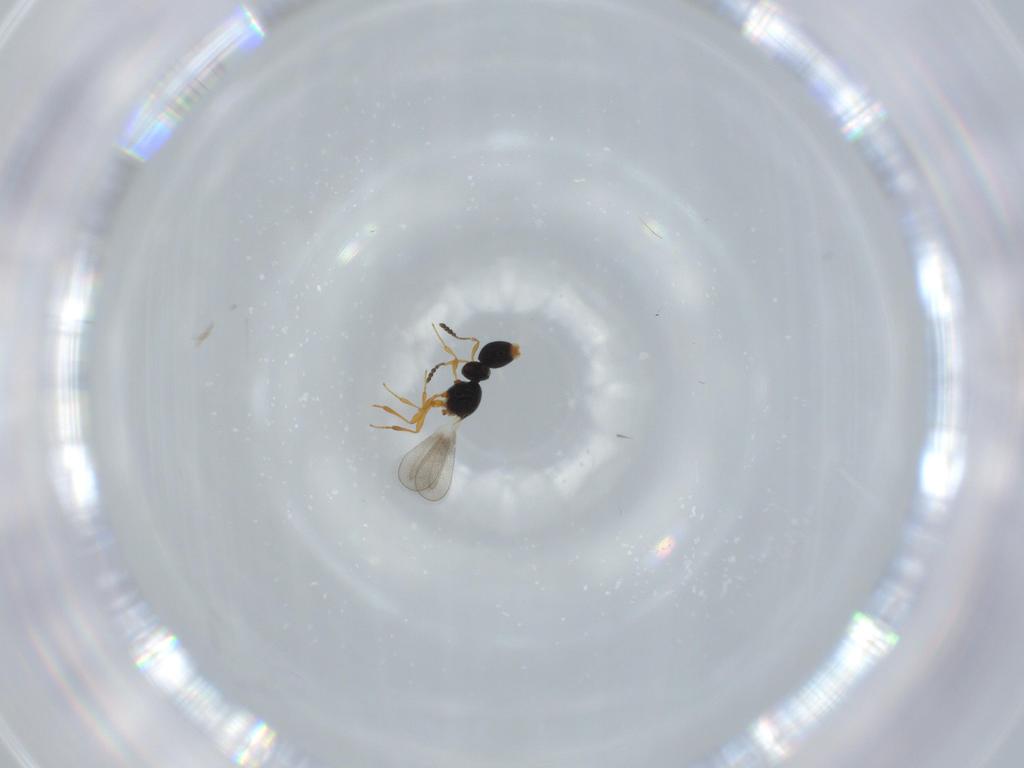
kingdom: Animalia
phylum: Arthropoda
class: Insecta
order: Hymenoptera
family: Platygastridae
